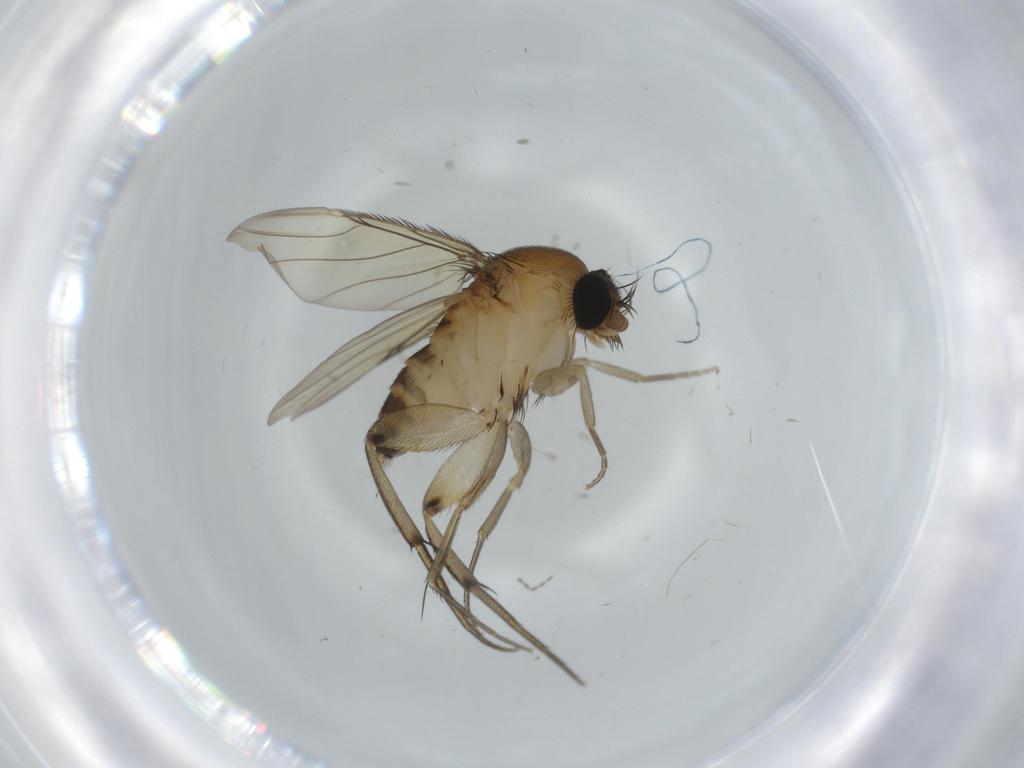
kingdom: Animalia
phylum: Arthropoda
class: Insecta
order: Diptera
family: Phoridae
